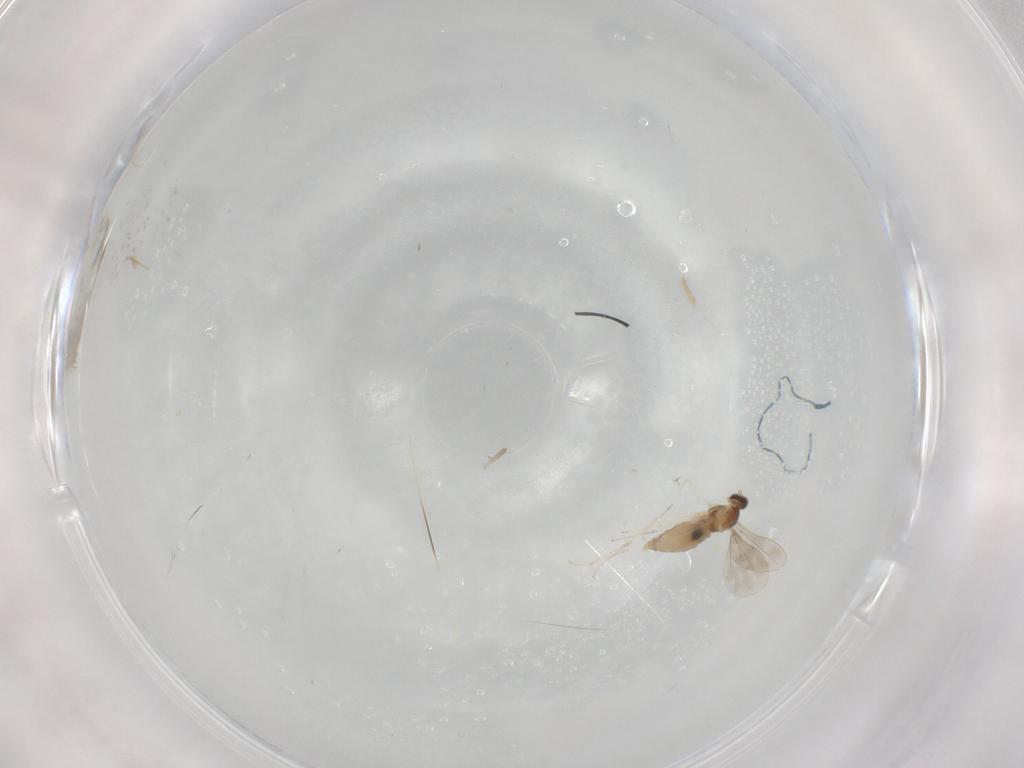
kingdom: Animalia
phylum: Arthropoda
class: Insecta
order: Diptera
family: Cecidomyiidae
